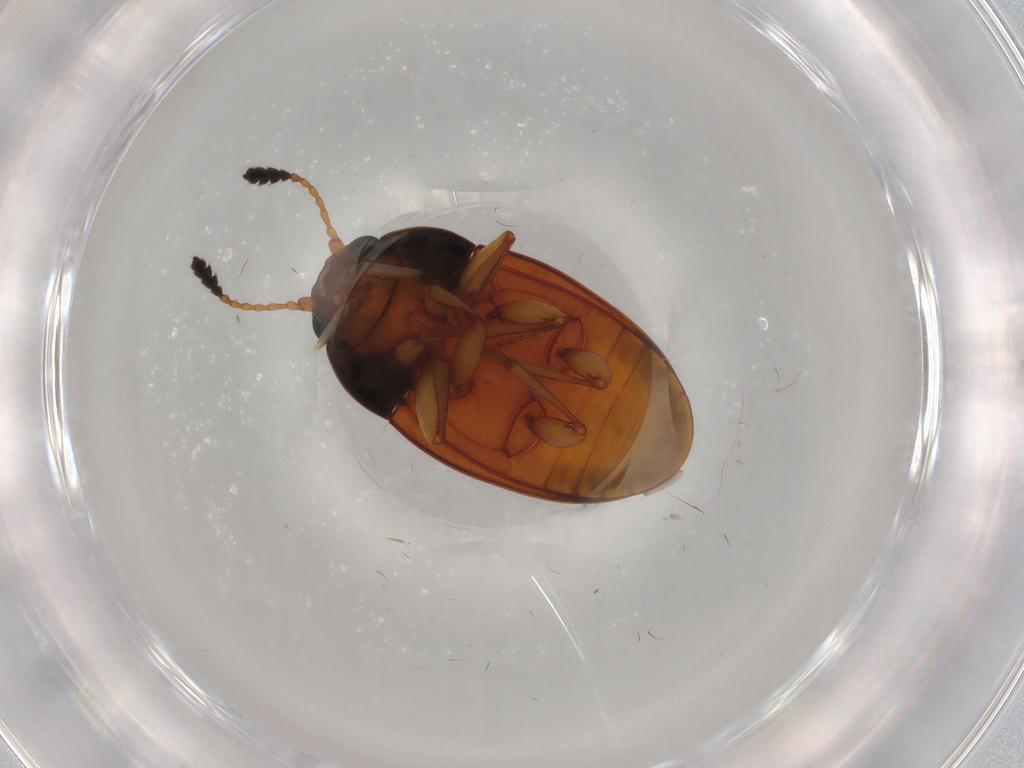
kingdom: Animalia
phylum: Arthropoda
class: Insecta
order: Coleoptera
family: Erotylidae
